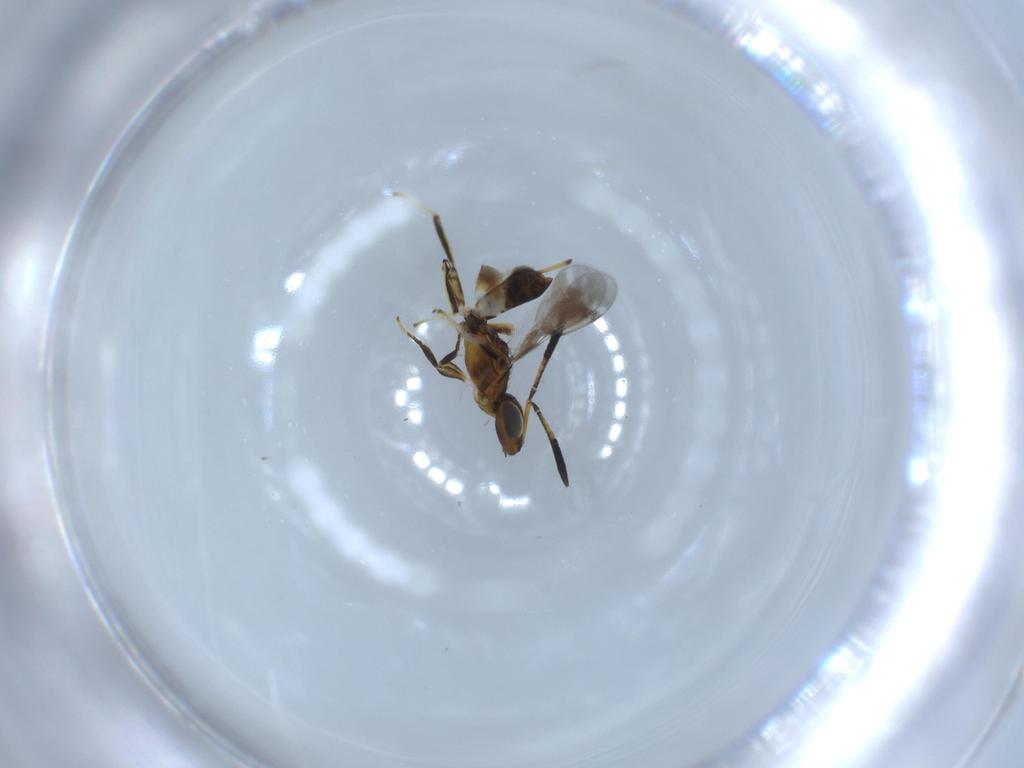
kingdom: Animalia
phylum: Arthropoda
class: Insecta
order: Hymenoptera
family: Eupelmidae
